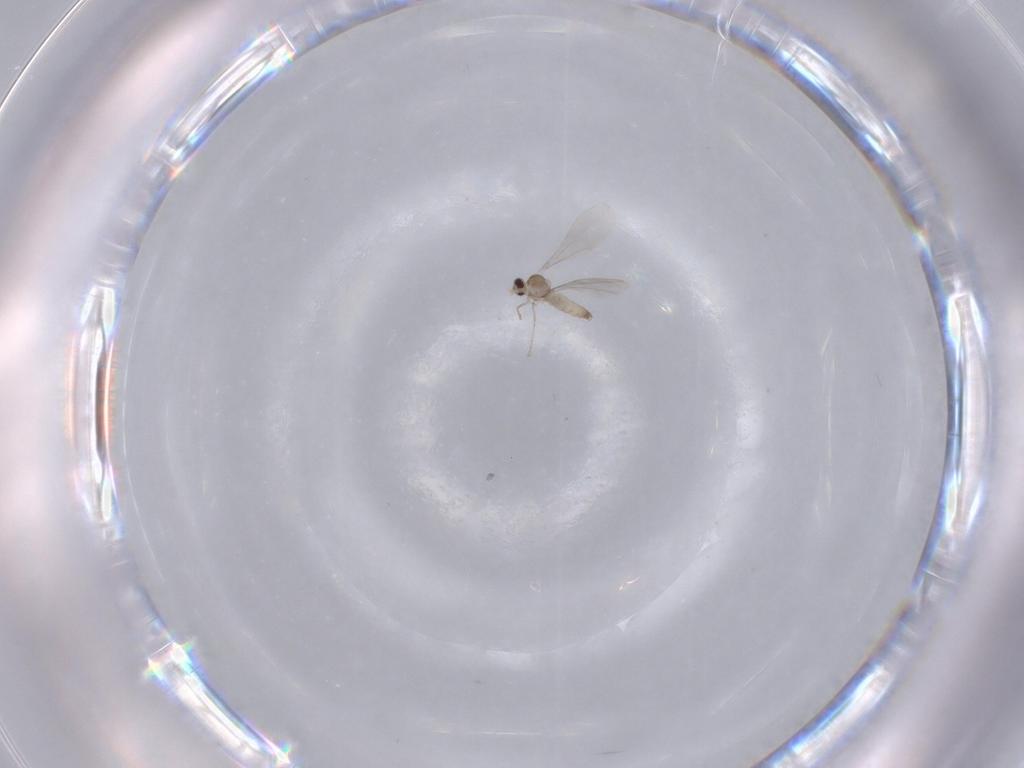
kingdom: Animalia
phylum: Arthropoda
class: Insecta
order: Diptera
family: Cecidomyiidae
